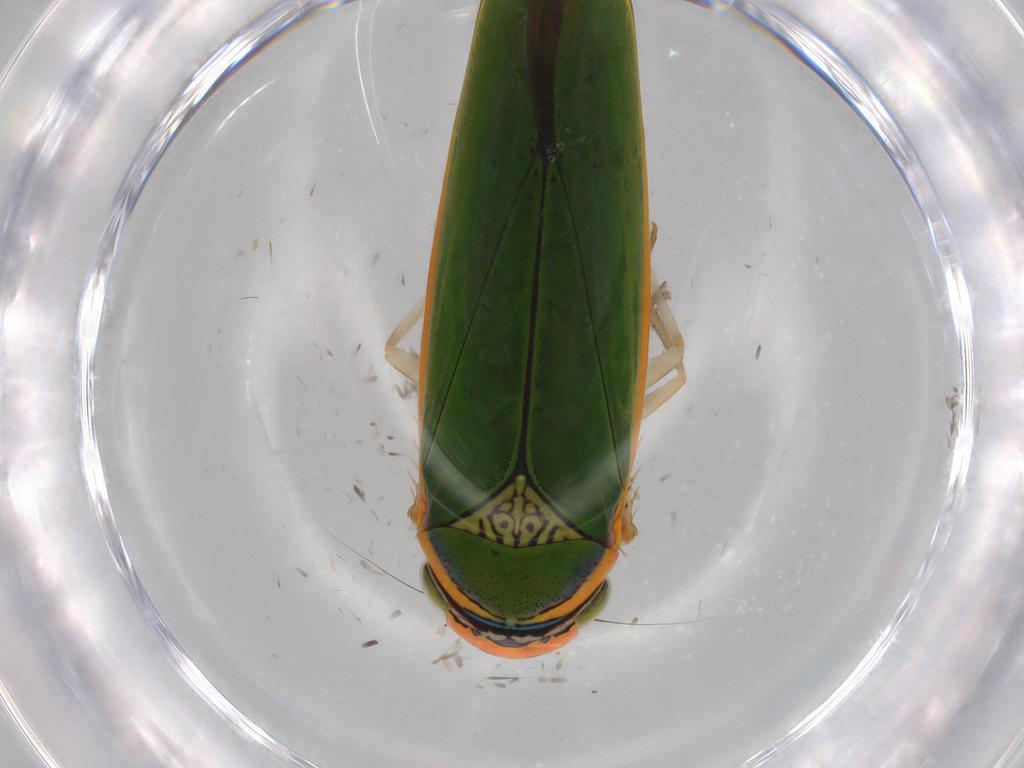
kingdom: Animalia
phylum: Arthropoda
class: Insecta
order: Hemiptera
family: Cicadellidae
